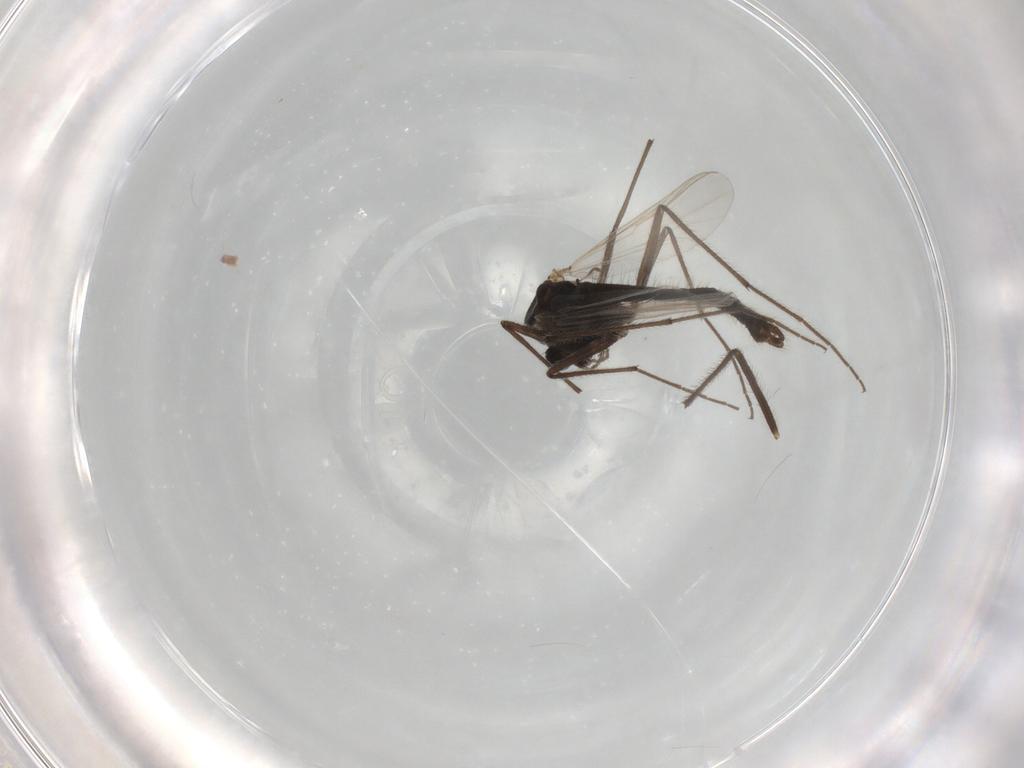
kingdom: Animalia
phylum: Arthropoda
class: Insecta
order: Diptera
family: Chironomidae
